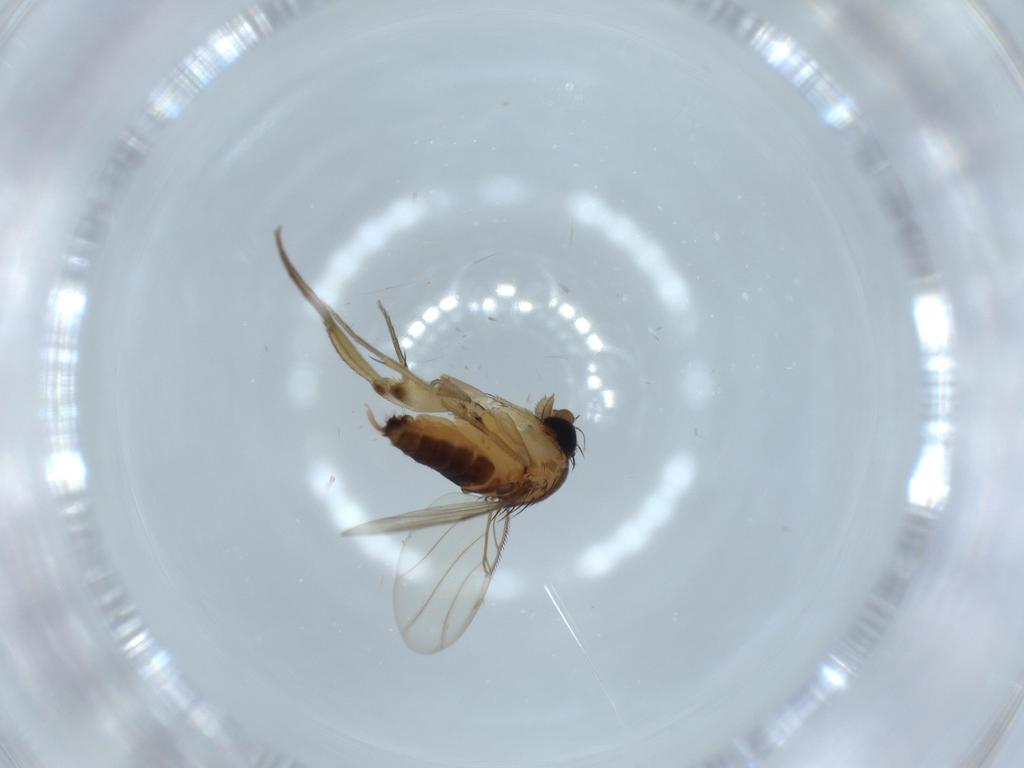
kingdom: Animalia
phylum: Arthropoda
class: Insecta
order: Diptera
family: Phoridae
